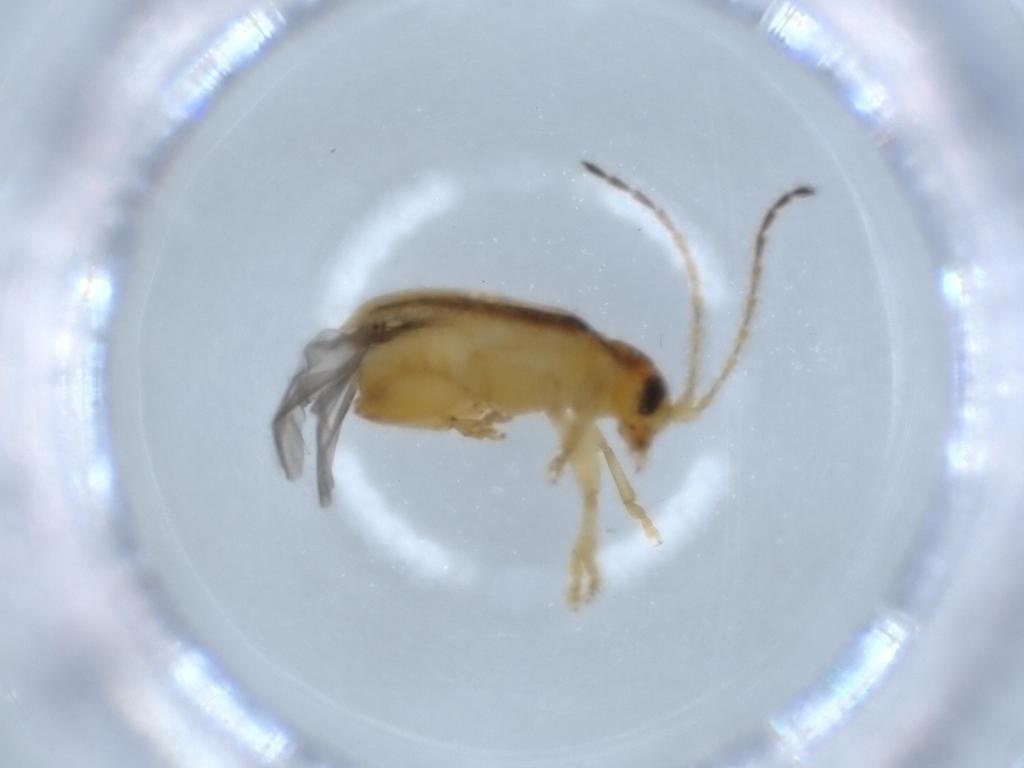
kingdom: Animalia
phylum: Arthropoda
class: Insecta
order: Coleoptera
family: Chrysomelidae
